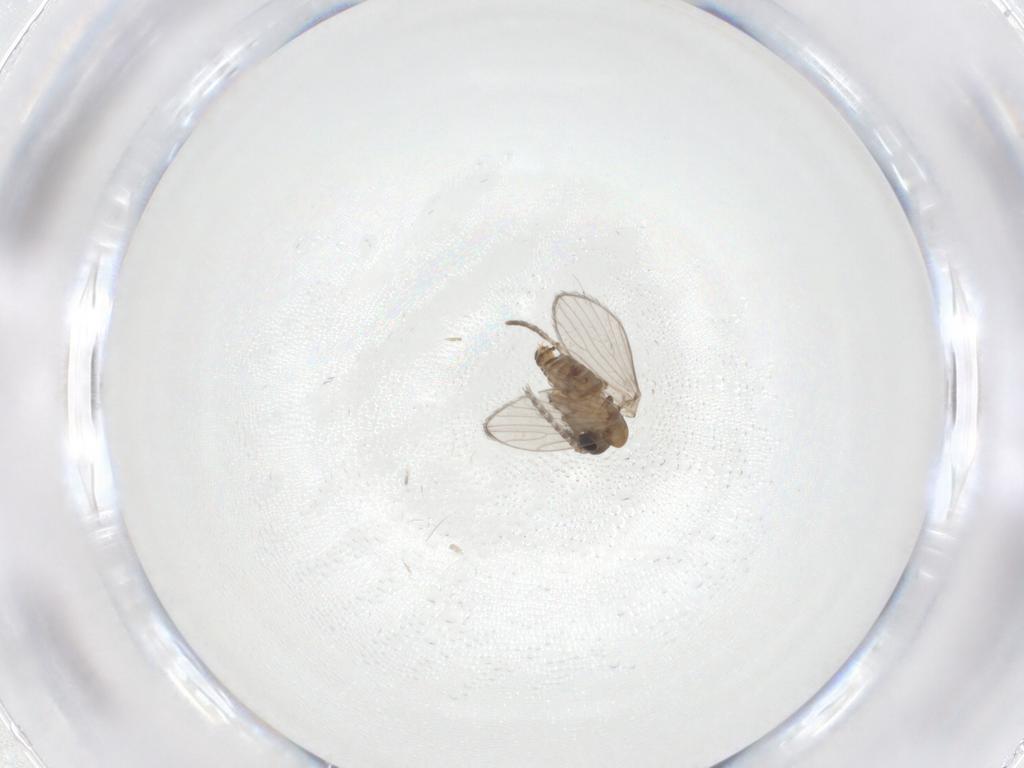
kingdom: Animalia
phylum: Arthropoda
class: Insecta
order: Diptera
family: Psychodidae
